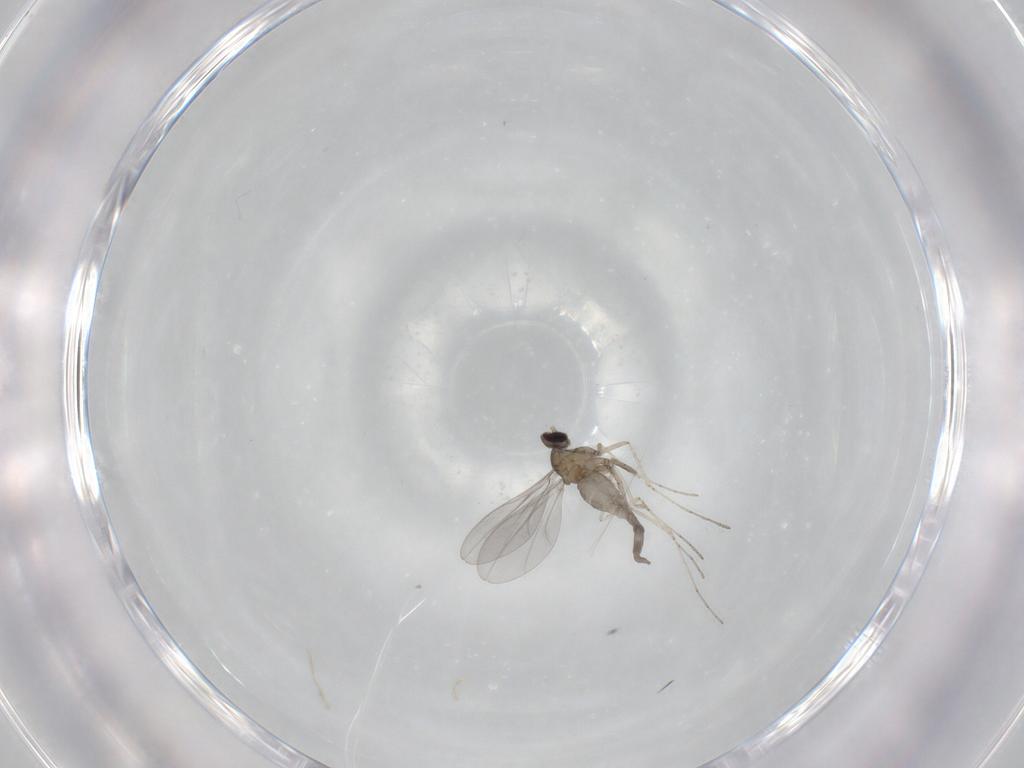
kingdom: Animalia
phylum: Arthropoda
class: Insecta
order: Diptera
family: Cecidomyiidae
